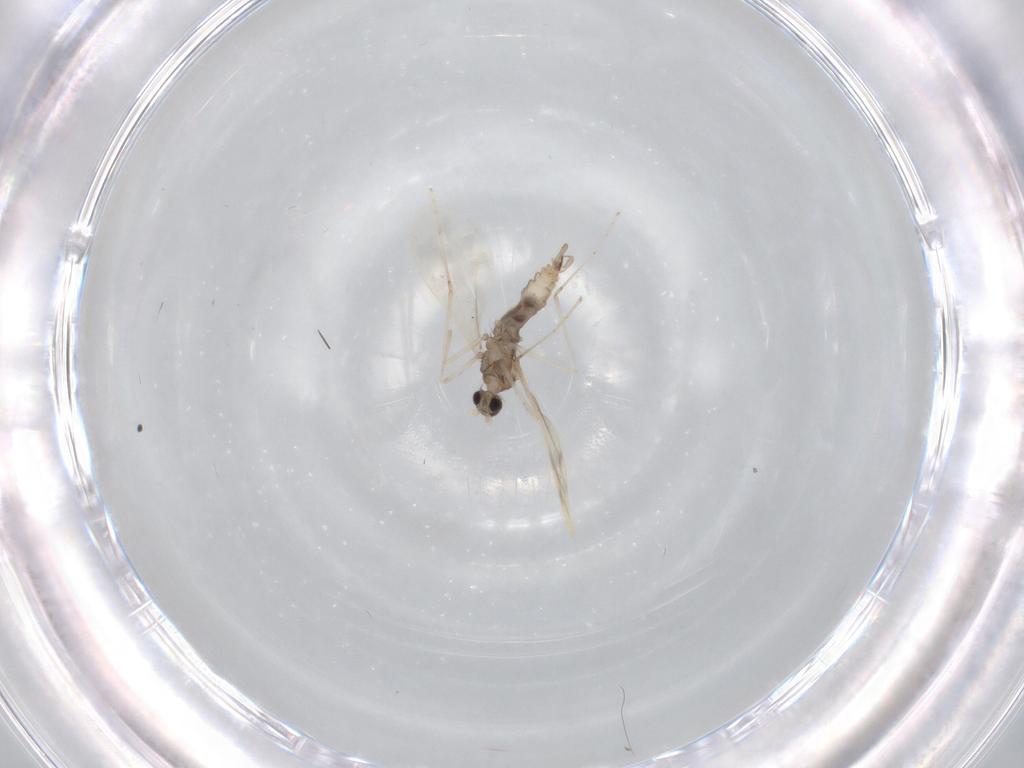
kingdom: Animalia
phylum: Arthropoda
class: Insecta
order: Diptera
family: Cecidomyiidae
